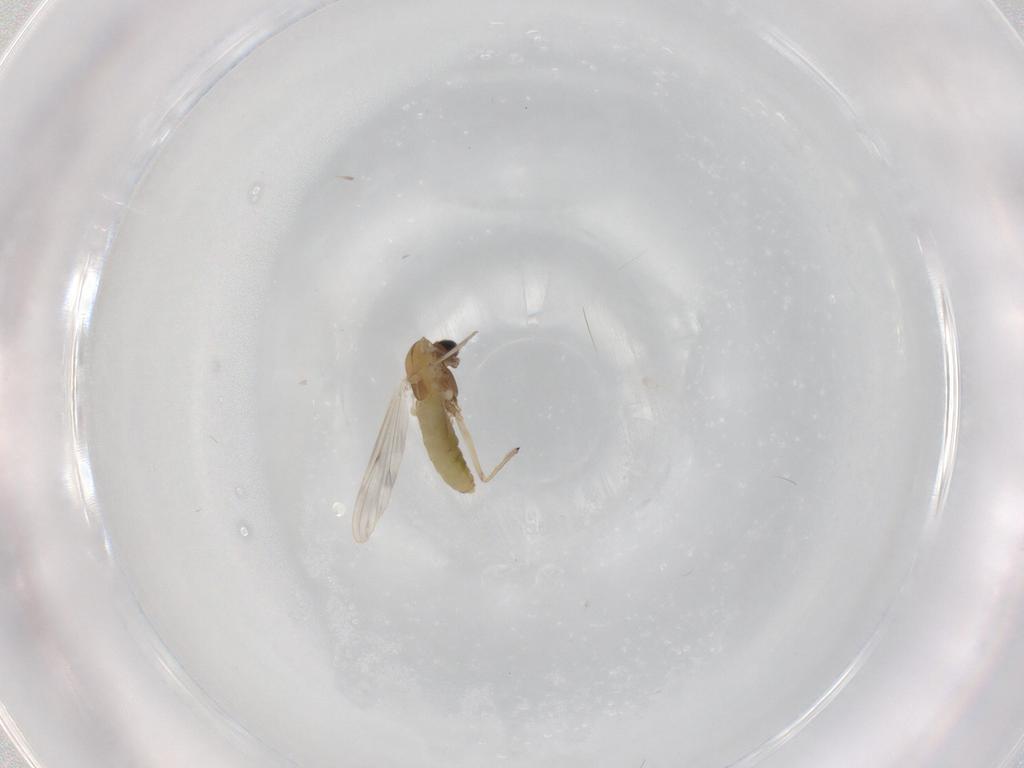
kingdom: Animalia
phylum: Arthropoda
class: Insecta
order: Diptera
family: Chironomidae
